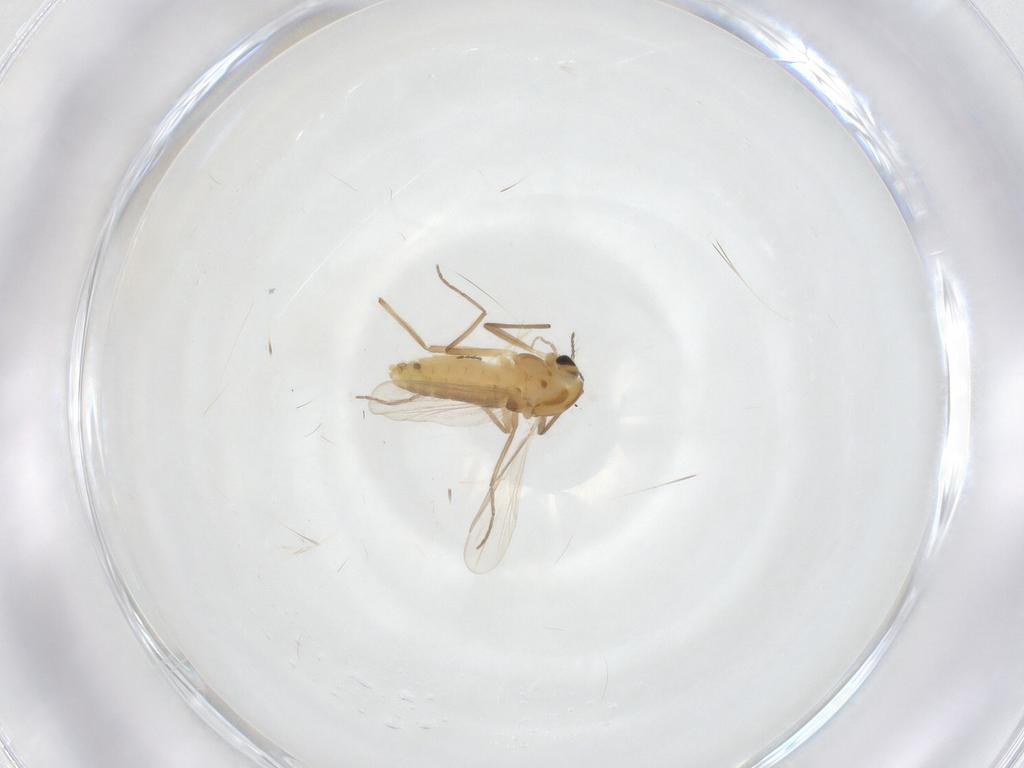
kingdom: Animalia
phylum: Arthropoda
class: Insecta
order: Diptera
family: Chironomidae
